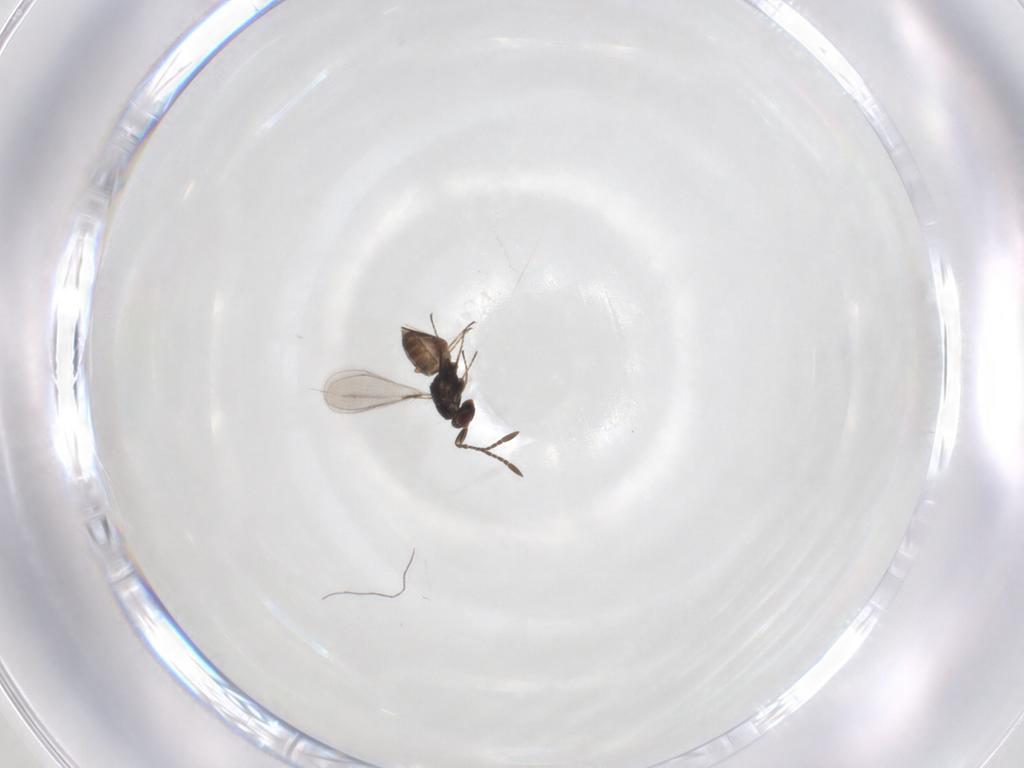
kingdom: Animalia
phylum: Arthropoda
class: Insecta
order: Hymenoptera
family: Mymaridae
